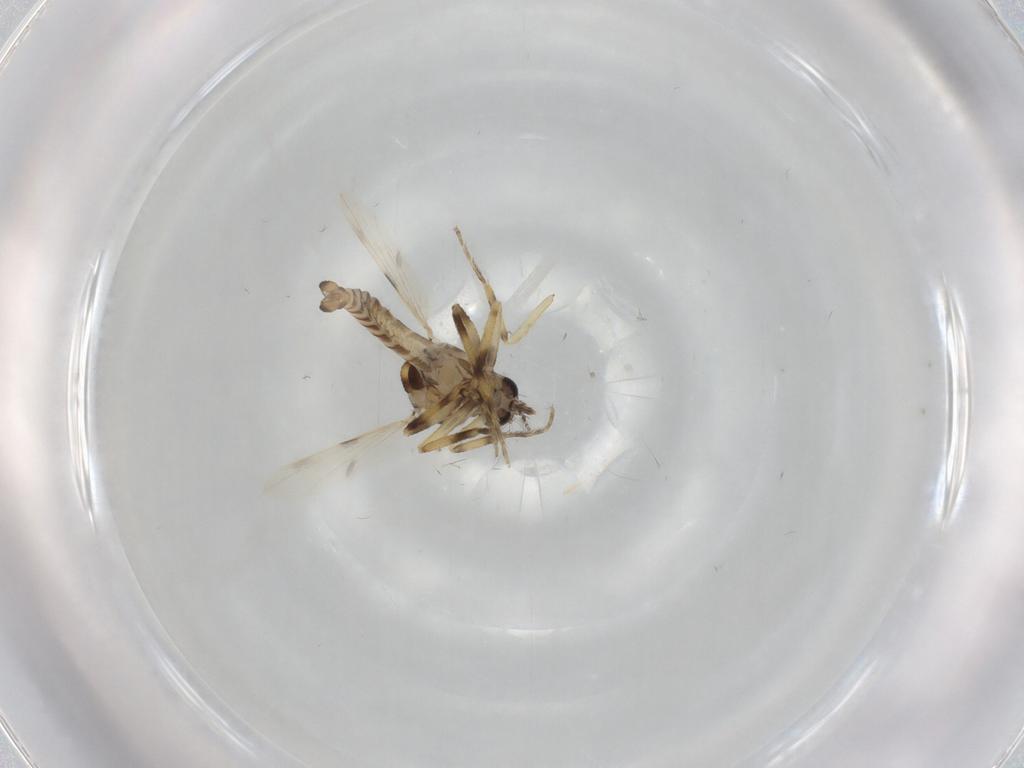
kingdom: Animalia
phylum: Arthropoda
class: Insecta
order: Diptera
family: Ceratopogonidae
